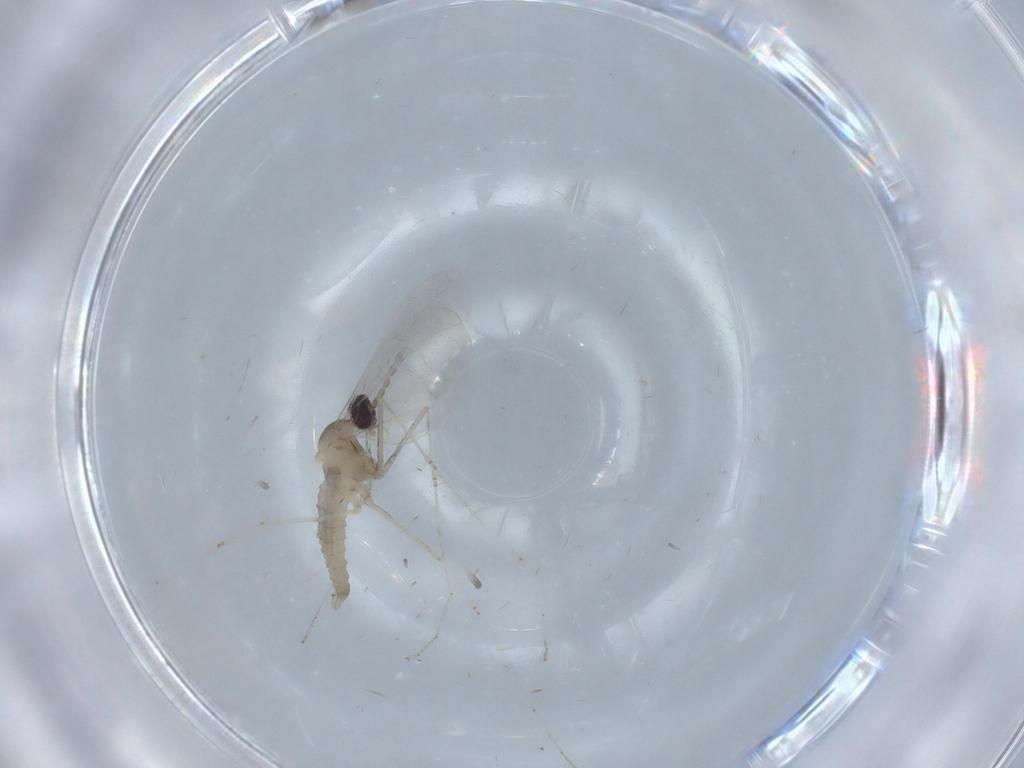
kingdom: Animalia
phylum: Arthropoda
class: Insecta
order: Diptera
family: Cecidomyiidae
